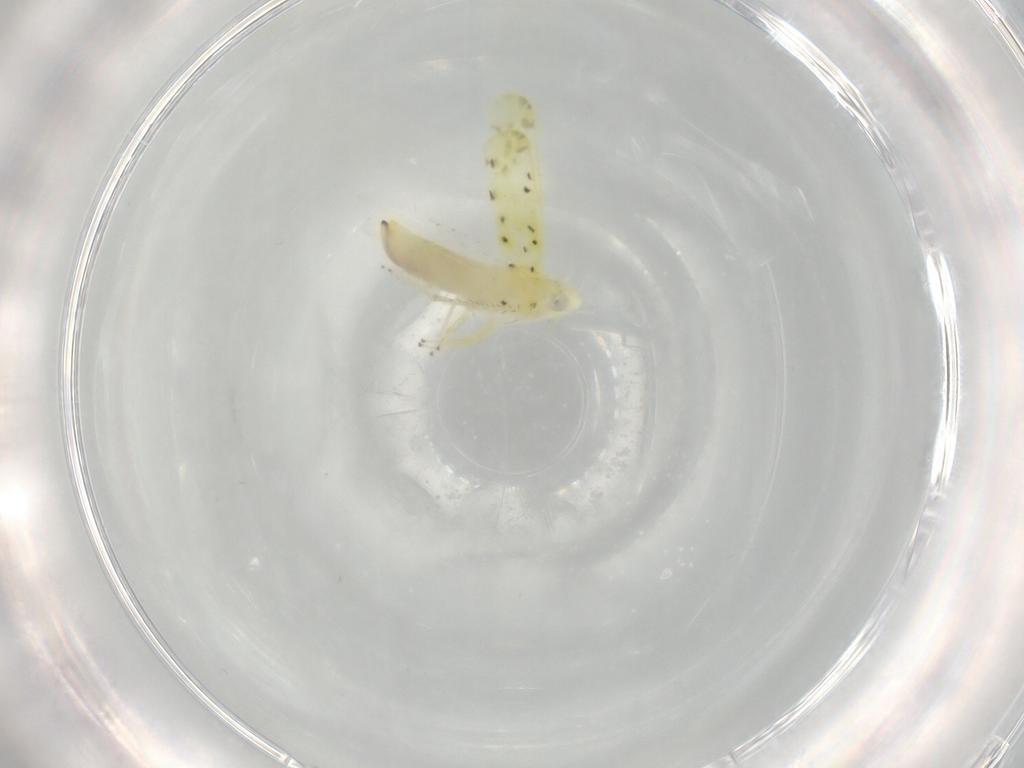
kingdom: Animalia
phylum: Arthropoda
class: Insecta
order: Hemiptera
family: Cicadellidae
